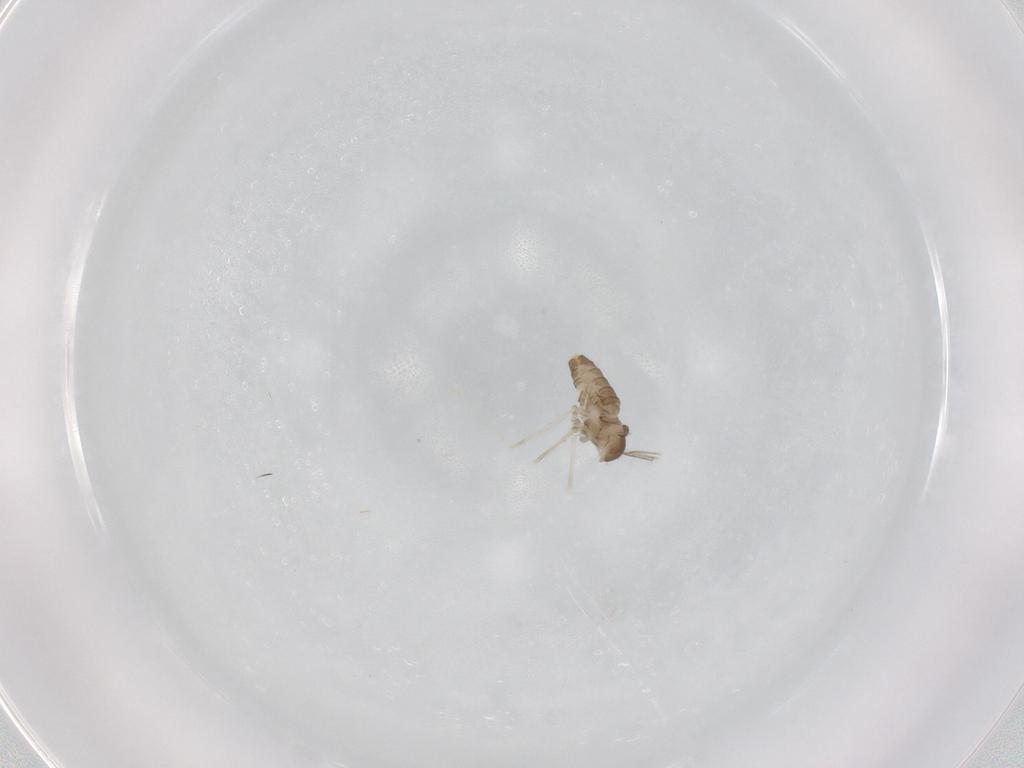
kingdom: Animalia
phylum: Arthropoda
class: Insecta
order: Diptera
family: Cecidomyiidae
